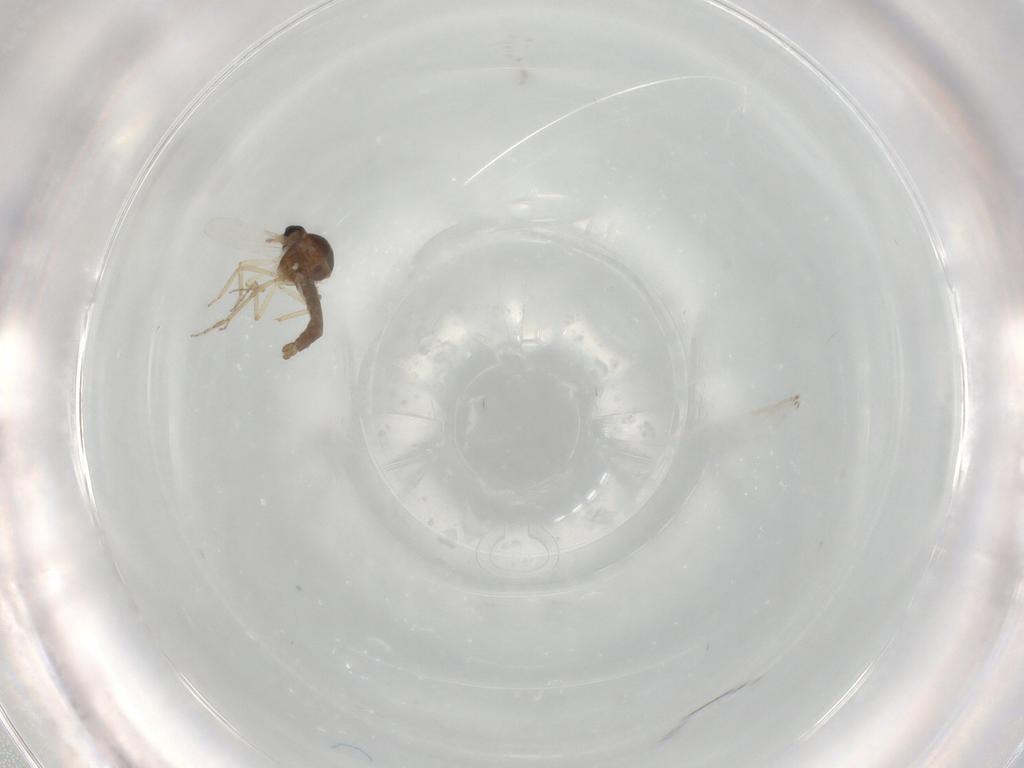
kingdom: Animalia
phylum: Arthropoda
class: Insecta
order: Diptera
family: Ceratopogonidae
